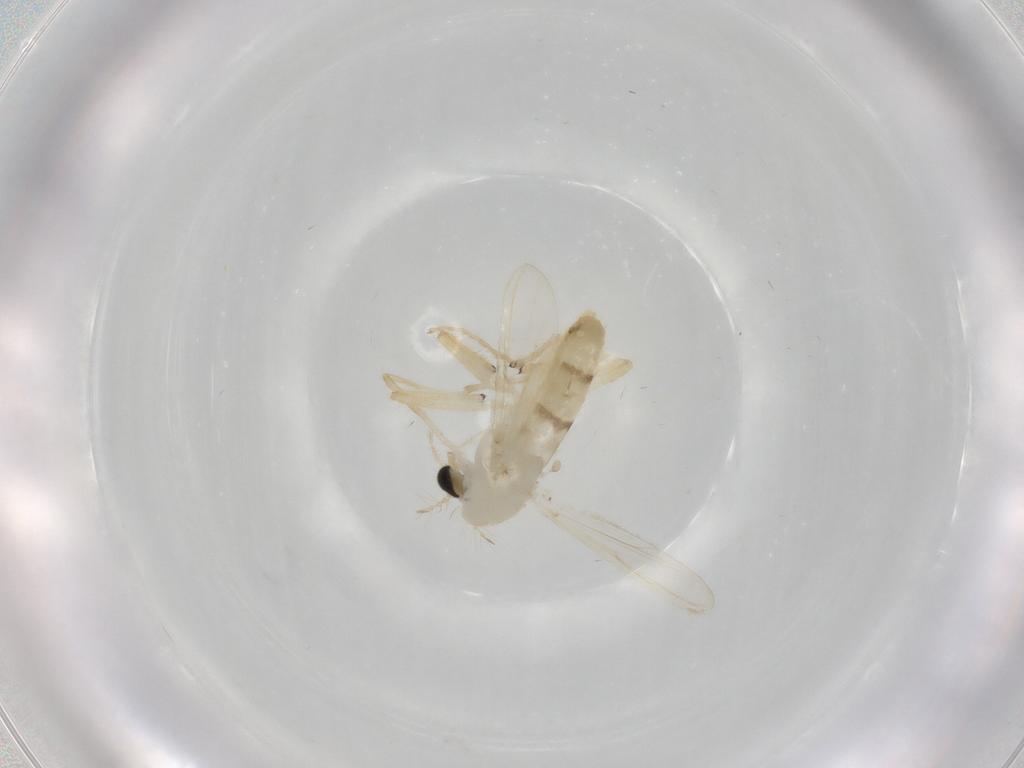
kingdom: Animalia
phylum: Arthropoda
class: Insecta
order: Diptera
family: Chironomidae
